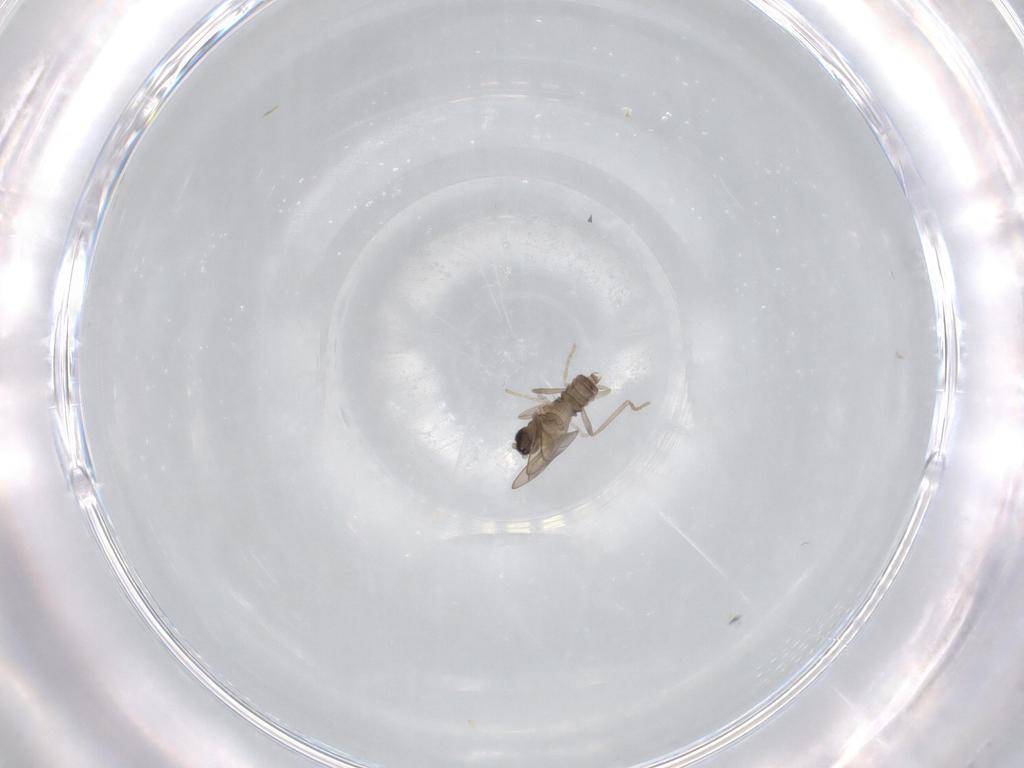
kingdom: Animalia
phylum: Arthropoda
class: Insecta
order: Diptera
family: Cecidomyiidae
